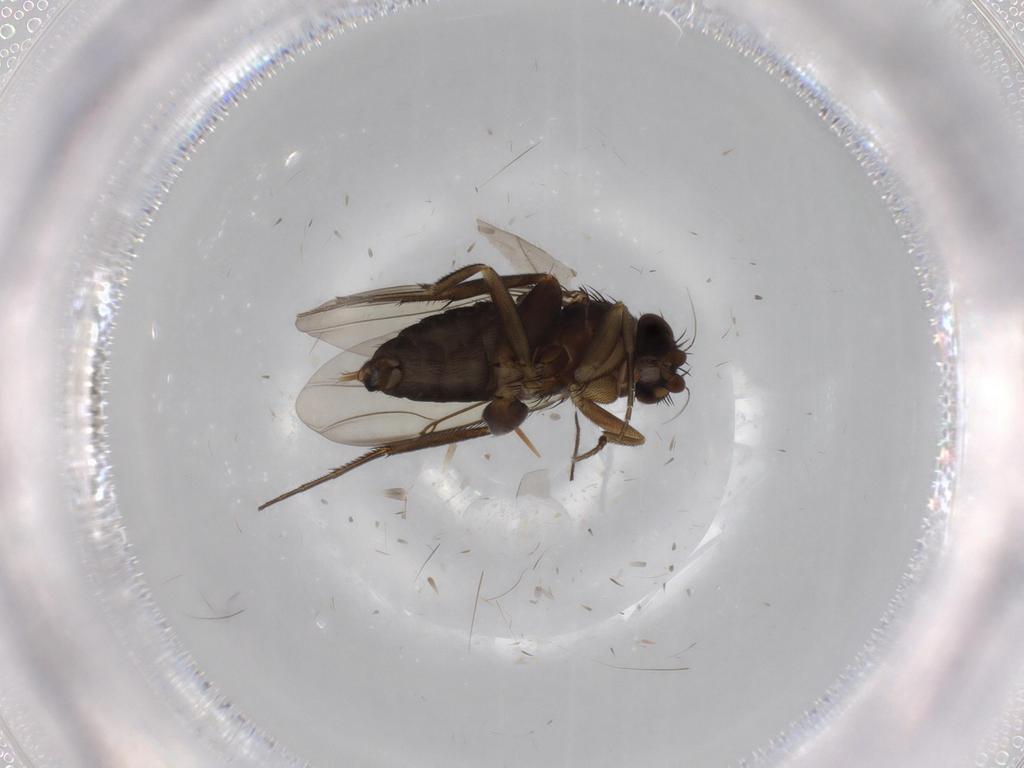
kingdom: Animalia
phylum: Arthropoda
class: Insecta
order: Diptera
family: Phoridae
